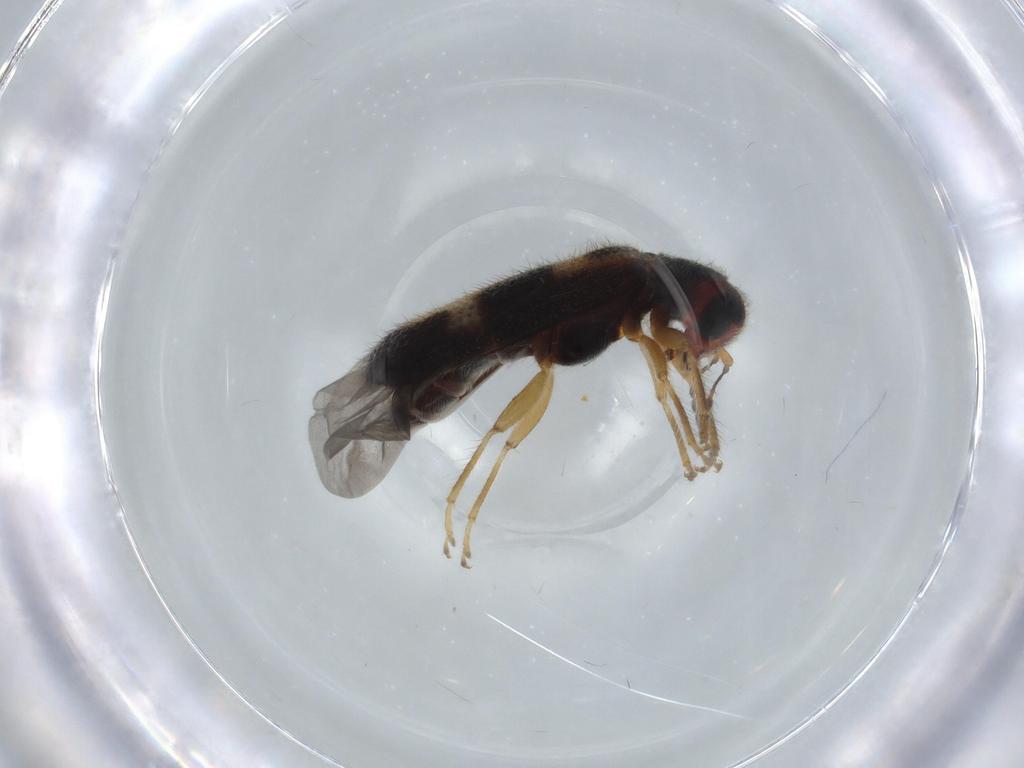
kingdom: Animalia
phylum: Arthropoda
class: Insecta
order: Coleoptera
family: Cleridae
